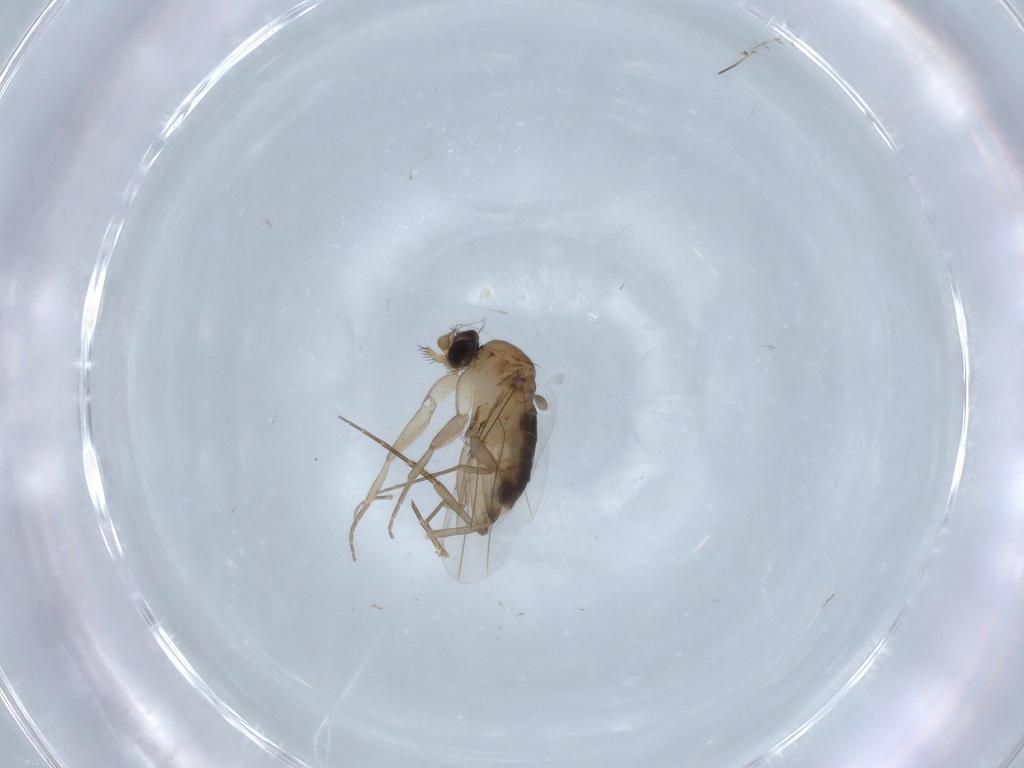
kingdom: Animalia
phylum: Arthropoda
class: Insecta
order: Diptera
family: Phoridae
